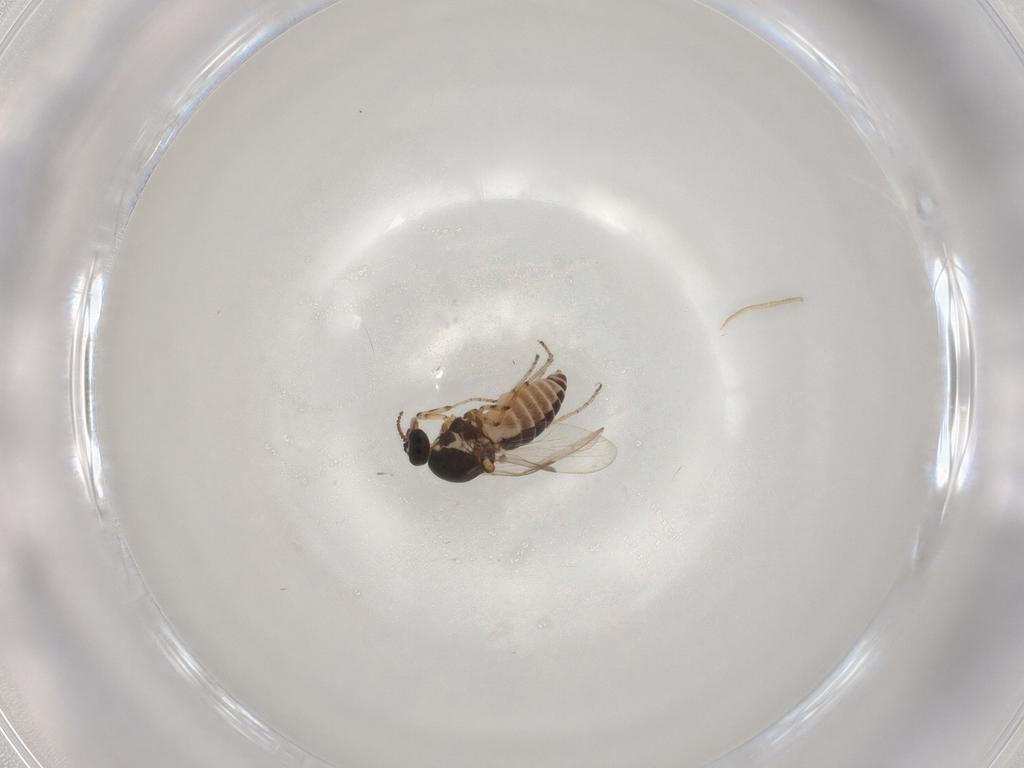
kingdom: Animalia
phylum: Arthropoda
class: Insecta
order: Diptera
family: Ceratopogonidae
